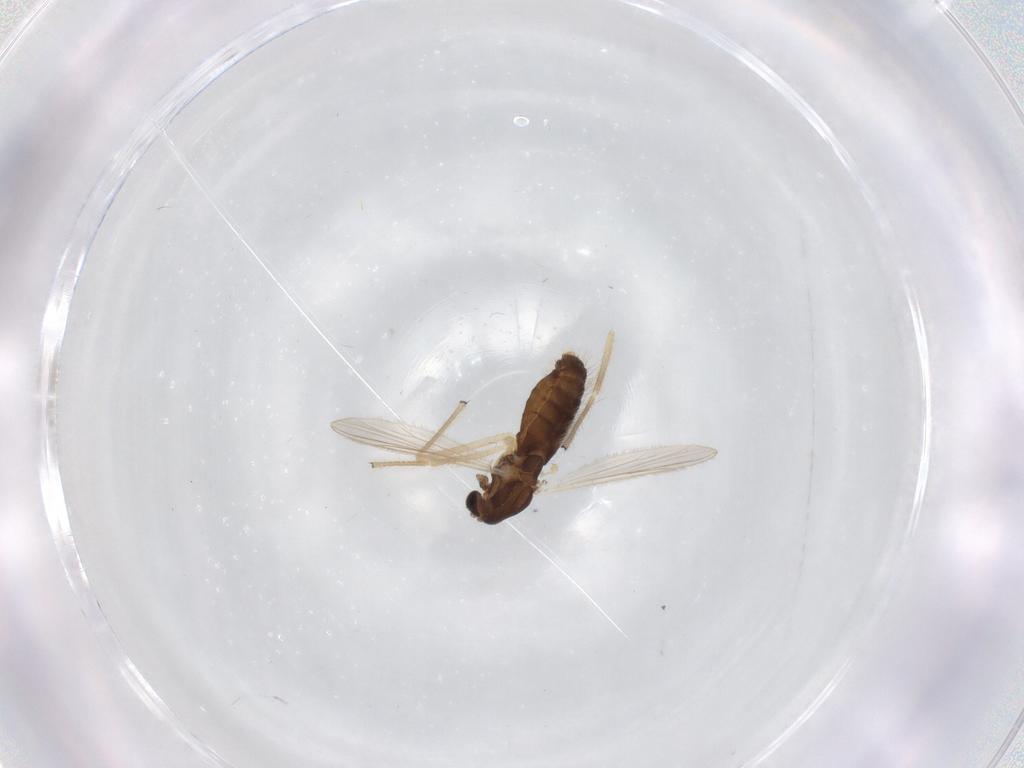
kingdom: Animalia
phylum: Arthropoda
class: Insecta
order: Diptera
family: Chironomidae
